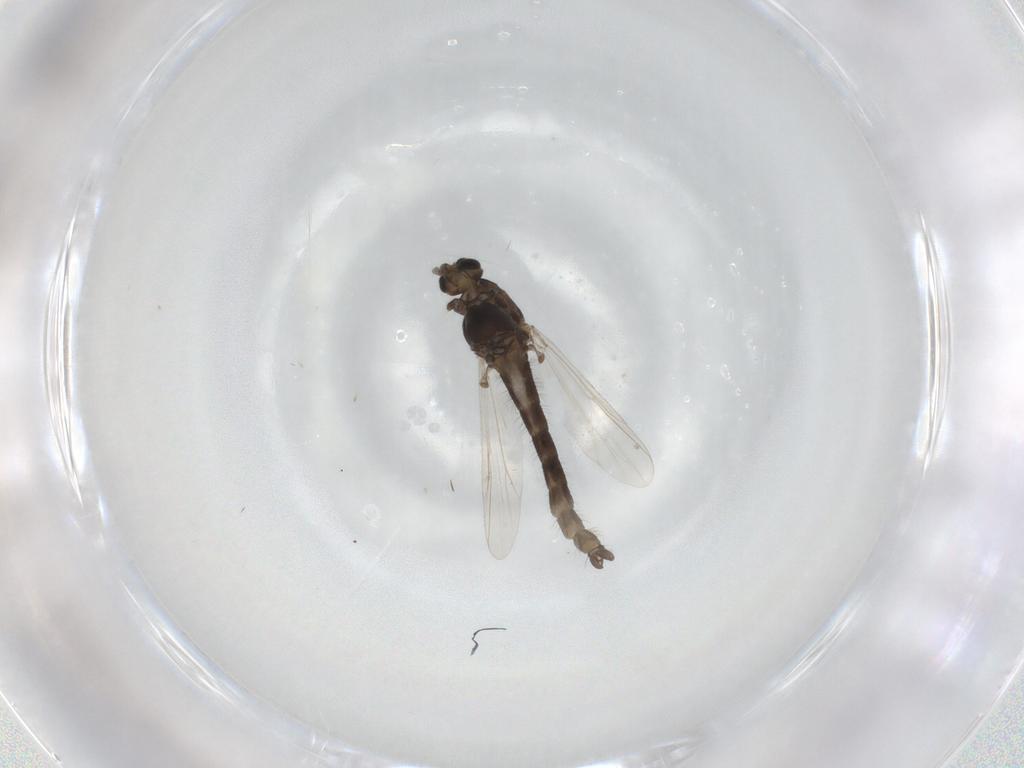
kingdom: Animalia
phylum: Arthropoda
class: Insecta
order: Diptera
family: Chironomidae
